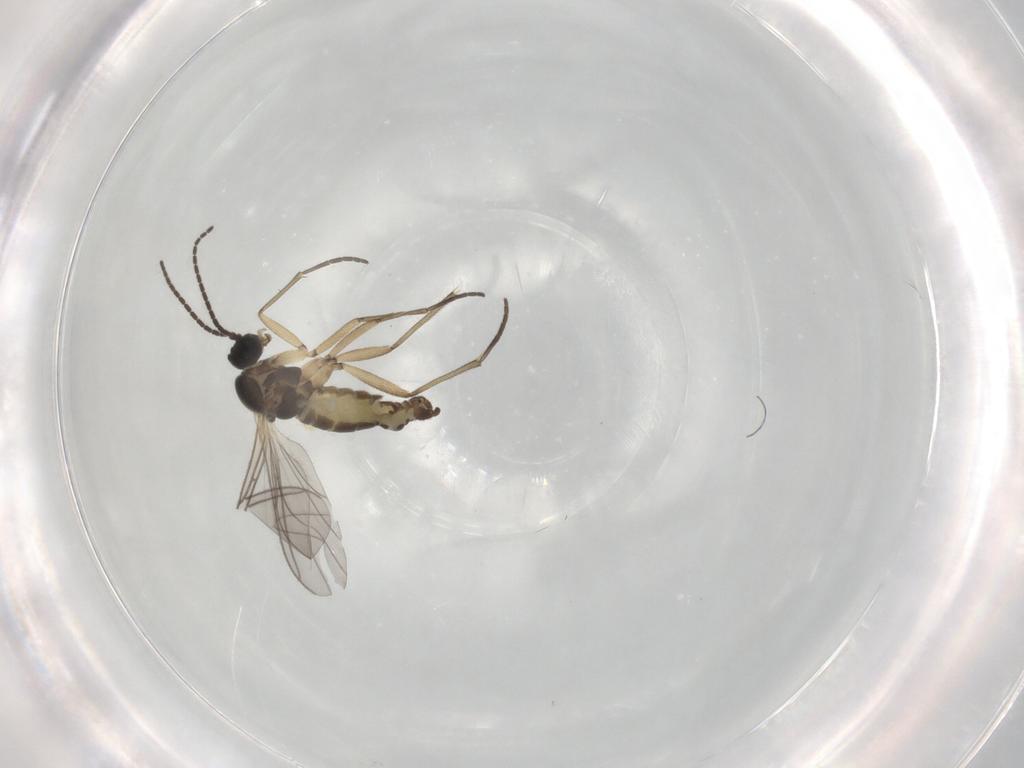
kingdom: Animalia
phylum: Arthropoda
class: Insecta
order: Diptera
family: Sciaridae
